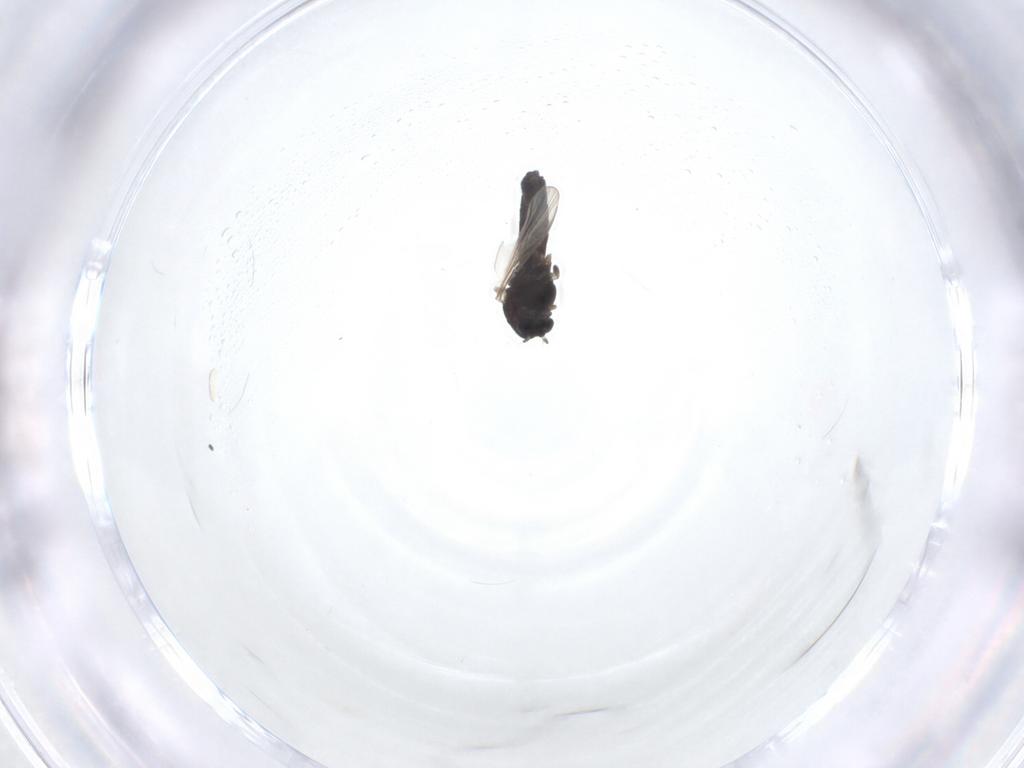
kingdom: Animalia
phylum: Arthropoda
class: Insecta
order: Diptera
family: Chironomidae
